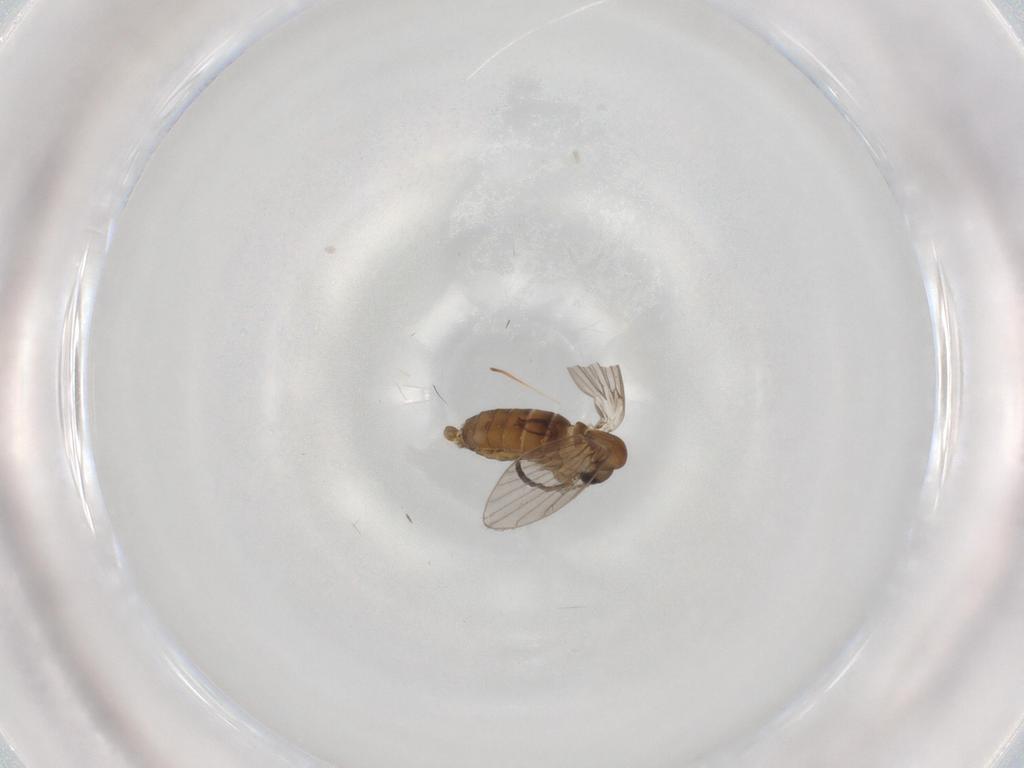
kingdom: Animalia
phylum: Arthropoda
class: Insecta
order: Diptera
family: Psychodidae
